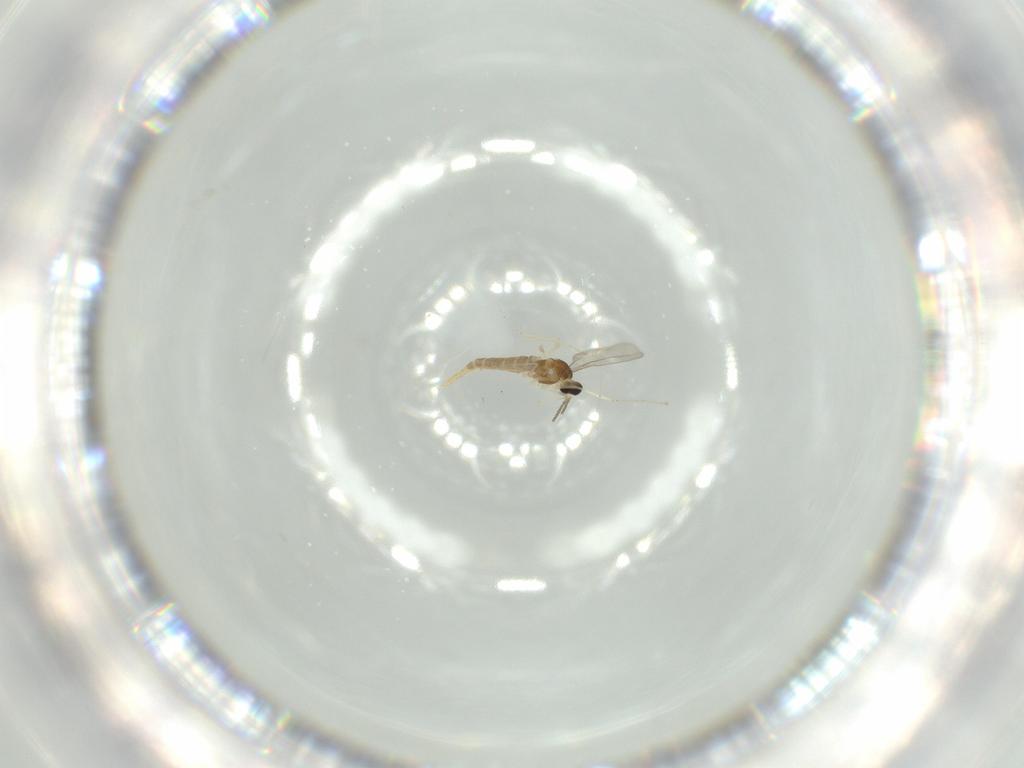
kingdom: Animalia
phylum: Arthropoda
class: Insecta
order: Diptera
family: Cecidomyiidae
